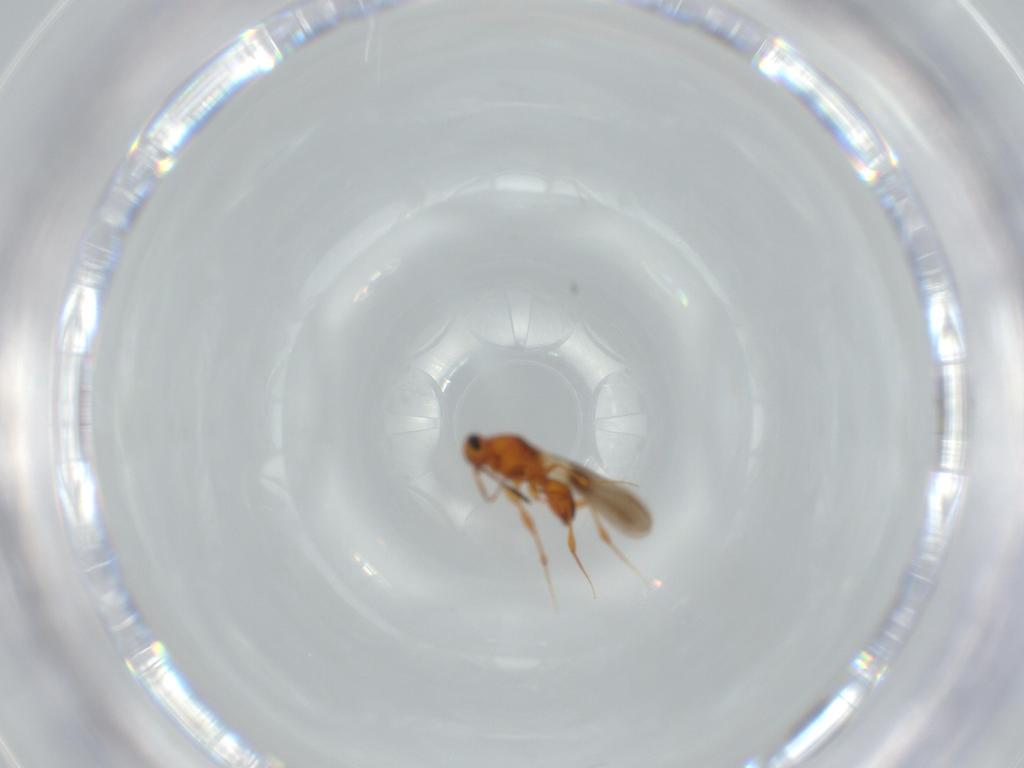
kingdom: Animalia
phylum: Arthropoda
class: Insecta
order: Hymenoptera
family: Platygastridae
